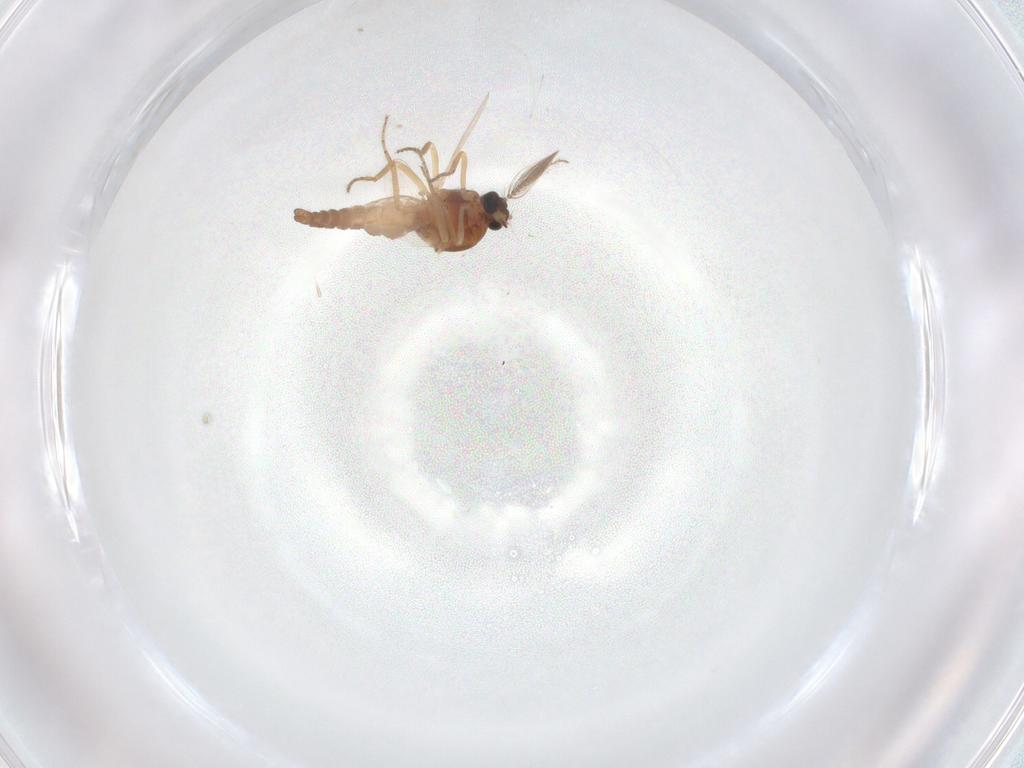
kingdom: Animalia
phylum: Arthropoda
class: Insecta
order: Diptera
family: Ceratopogonidae
